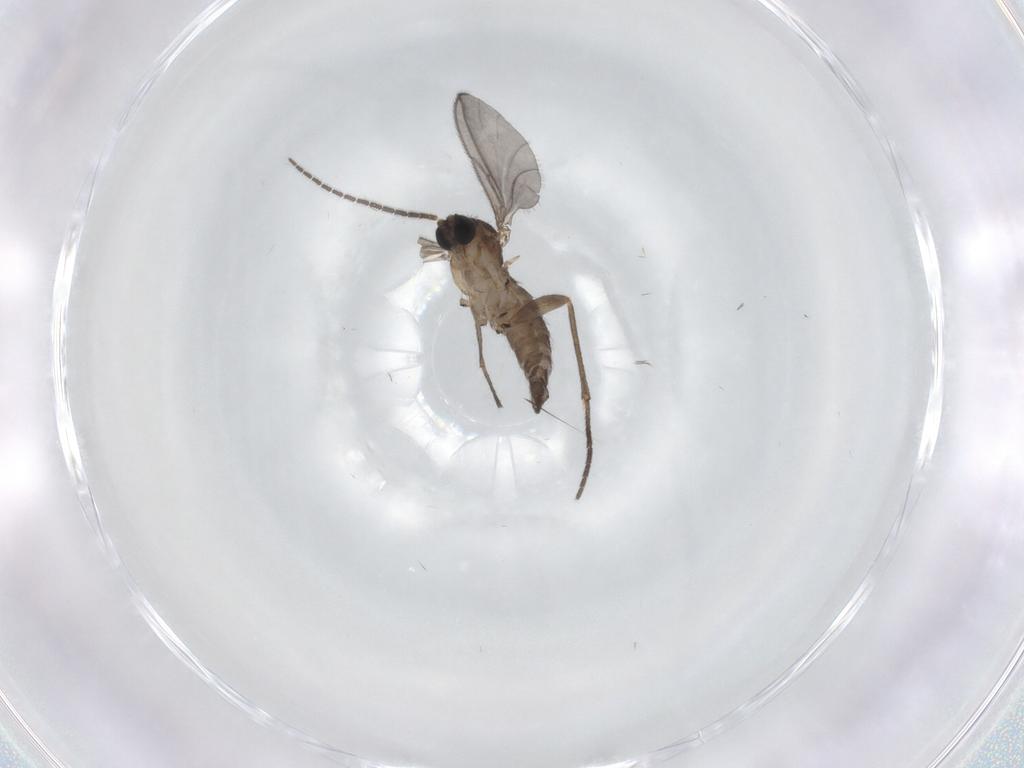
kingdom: Animalia
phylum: Arthropoda
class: Insecta
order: Diptera
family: Sciaridae
